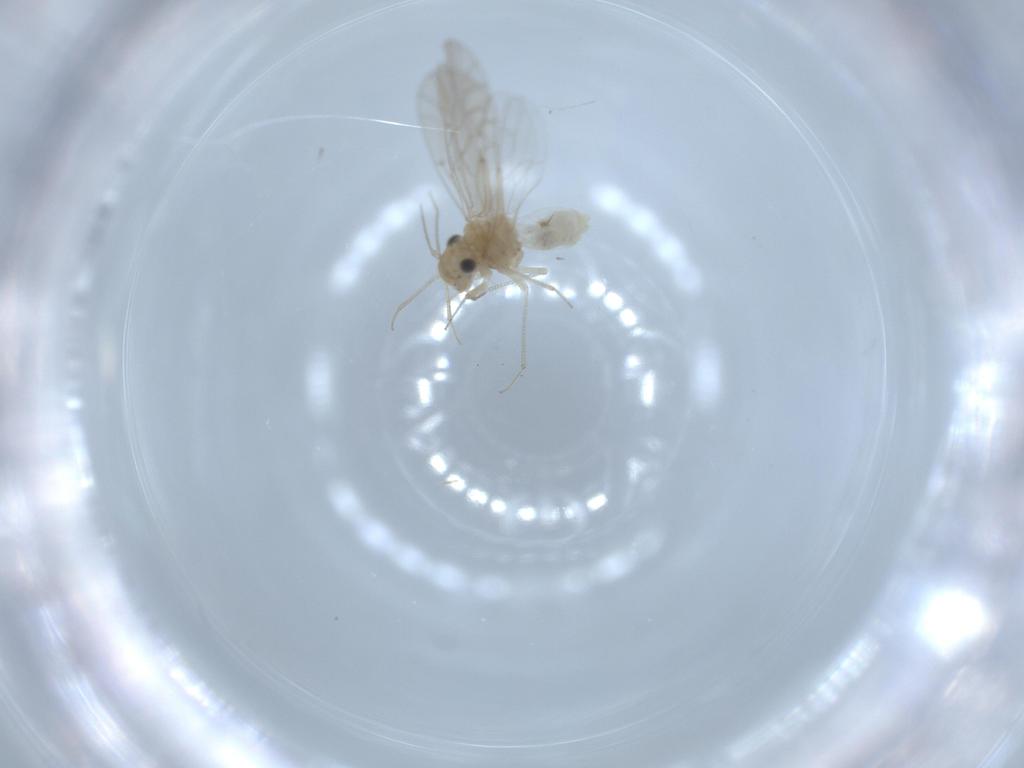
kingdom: Animalia
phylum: Arthropoda
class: Insecta
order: Psocodea
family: Lachesillidae
